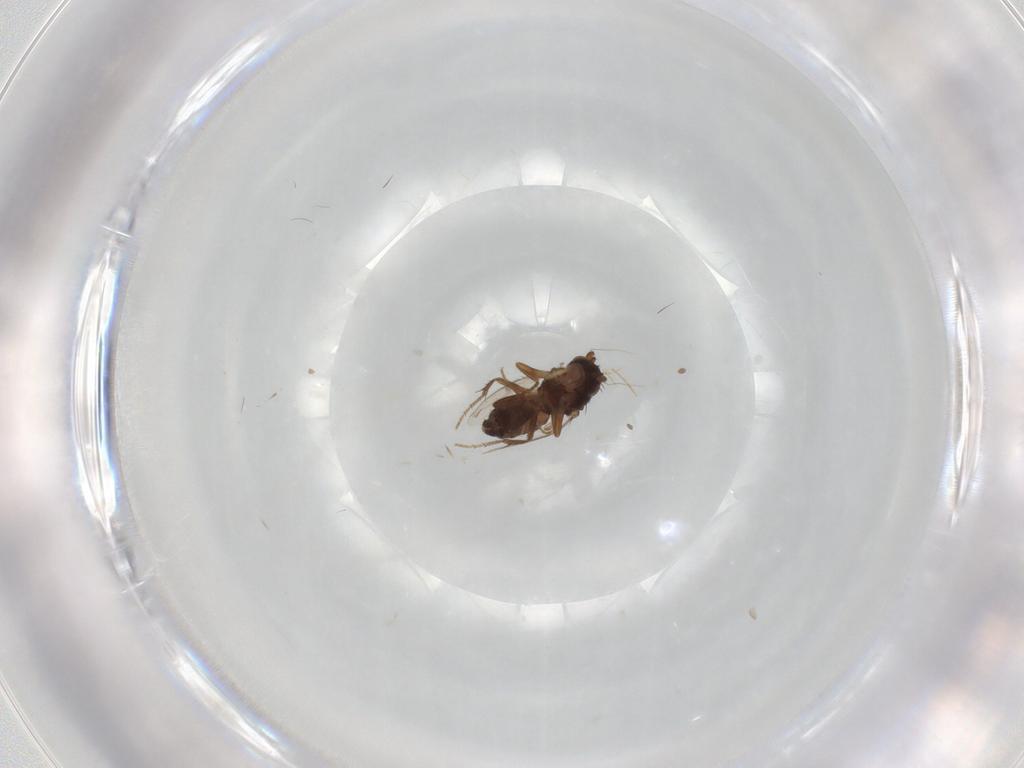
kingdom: Animalia
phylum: Arthropoda
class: Insecta
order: Diptera
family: Sphaeroceridae
